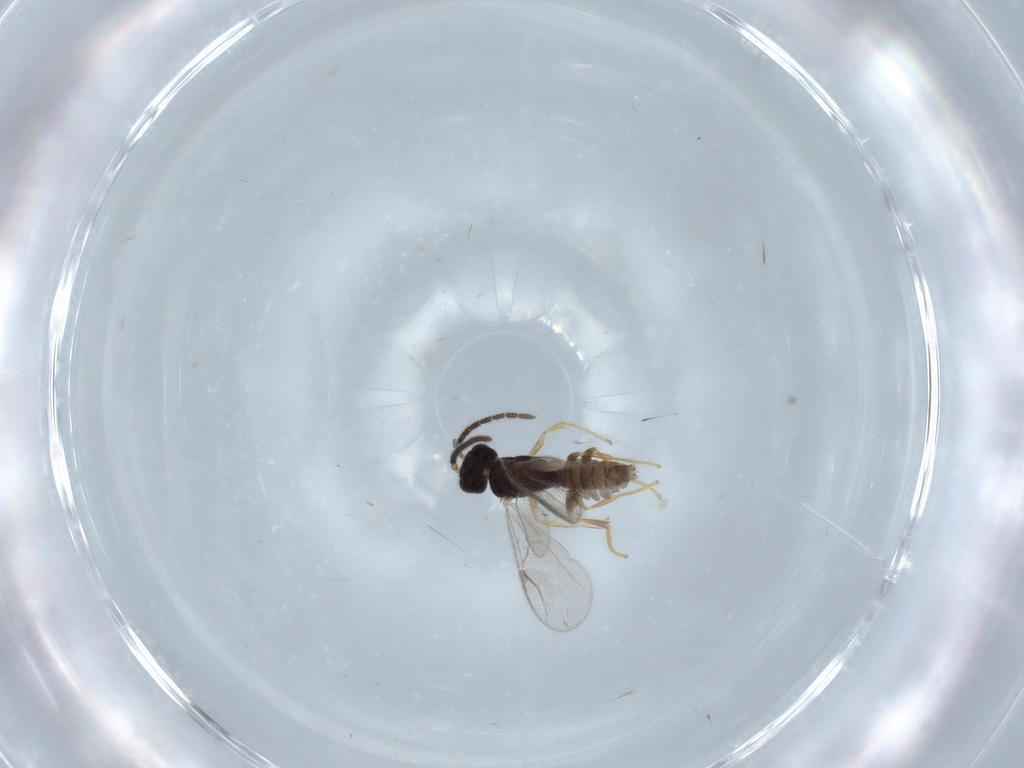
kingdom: Animalia
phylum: Arthropoda
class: Insecta
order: Hymenoptera
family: Dryinidae
